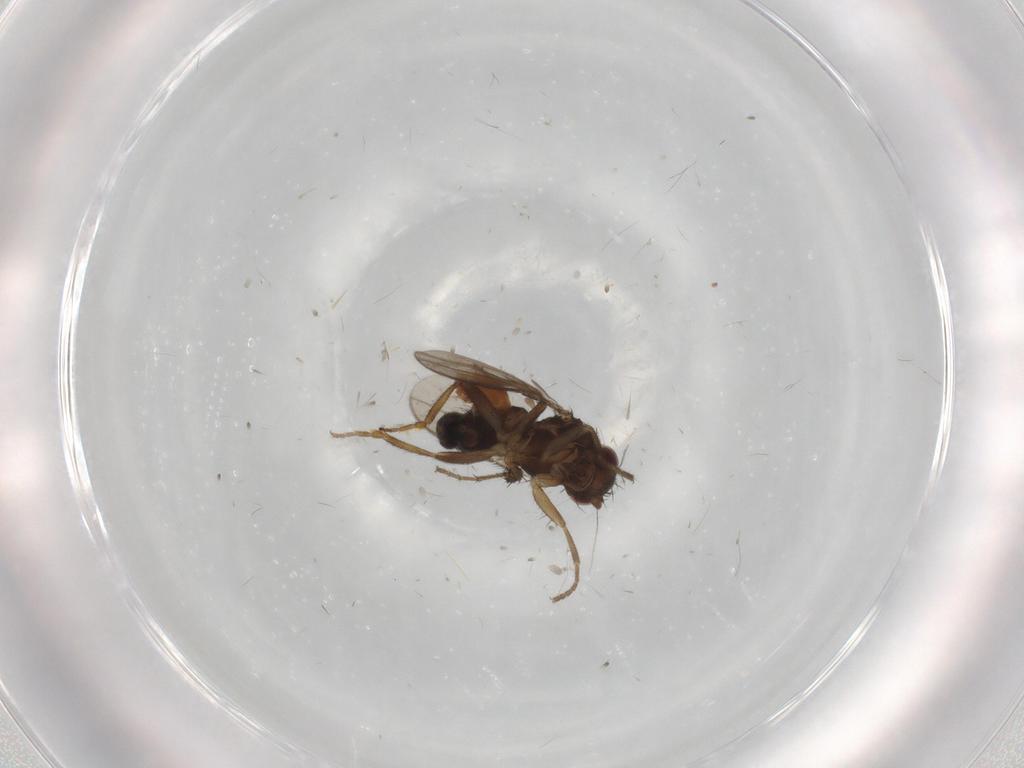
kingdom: Animalia
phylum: Arthropoda
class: Insecta
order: Diptera
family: Sphaeroceridae
